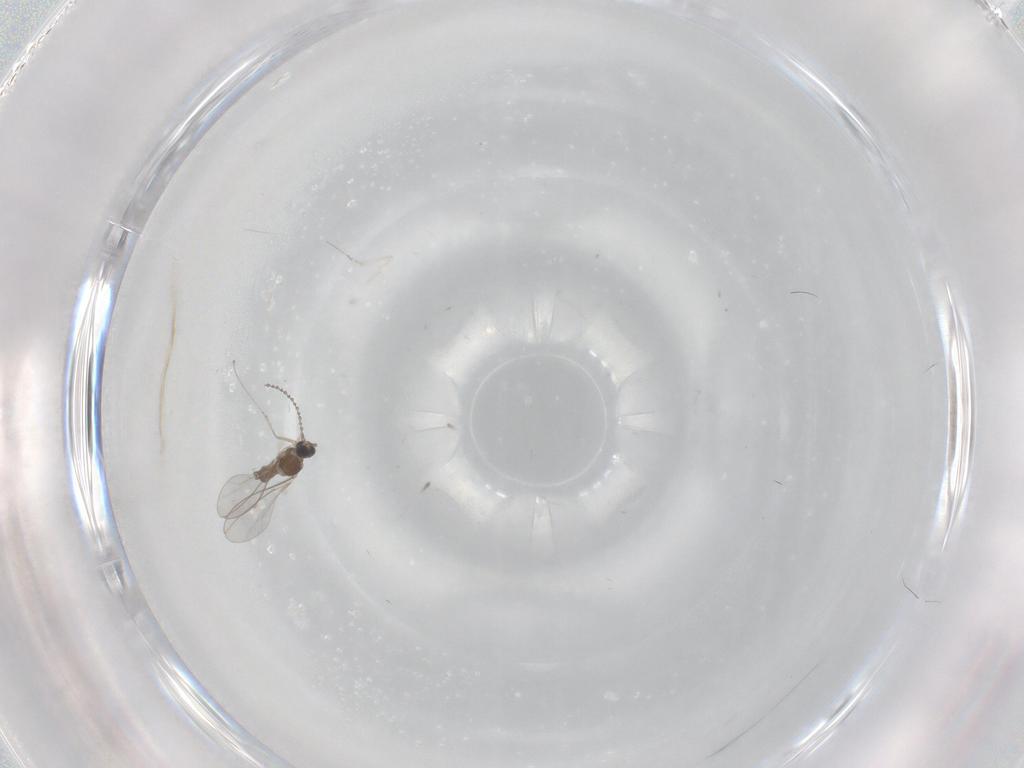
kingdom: Animalia
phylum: Arthropoda
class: Insecta
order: Diptera
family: Cecidomyiidae
